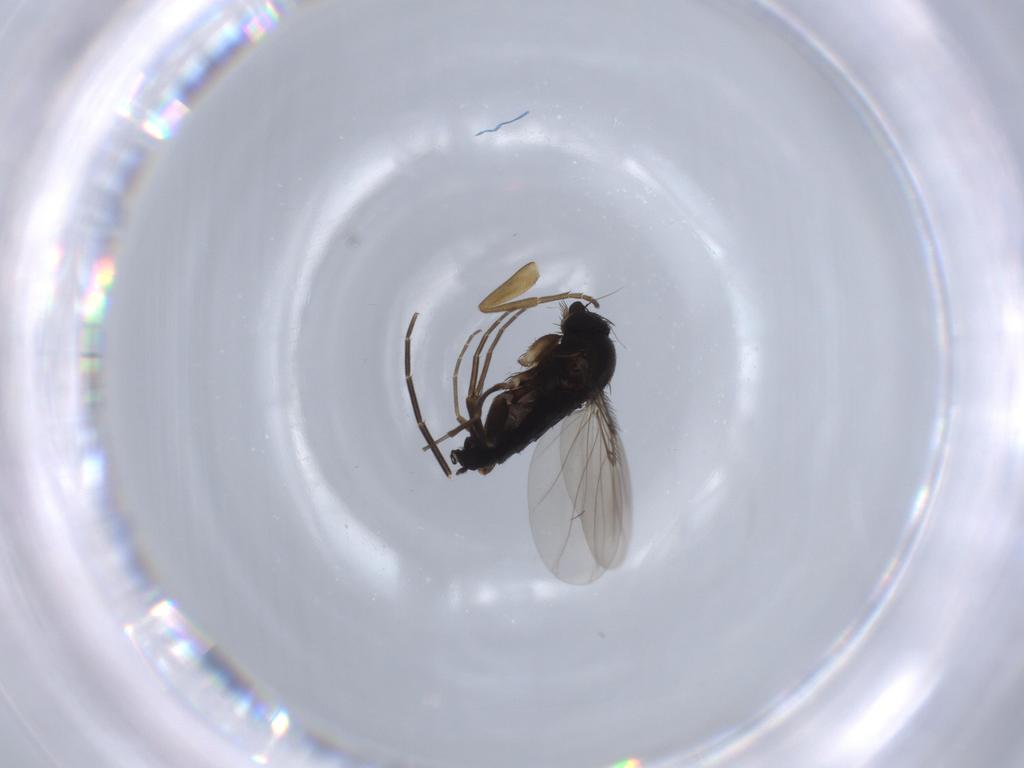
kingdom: Animalia
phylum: Arthropoda
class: Insecta
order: Diptera
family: Phoridae
